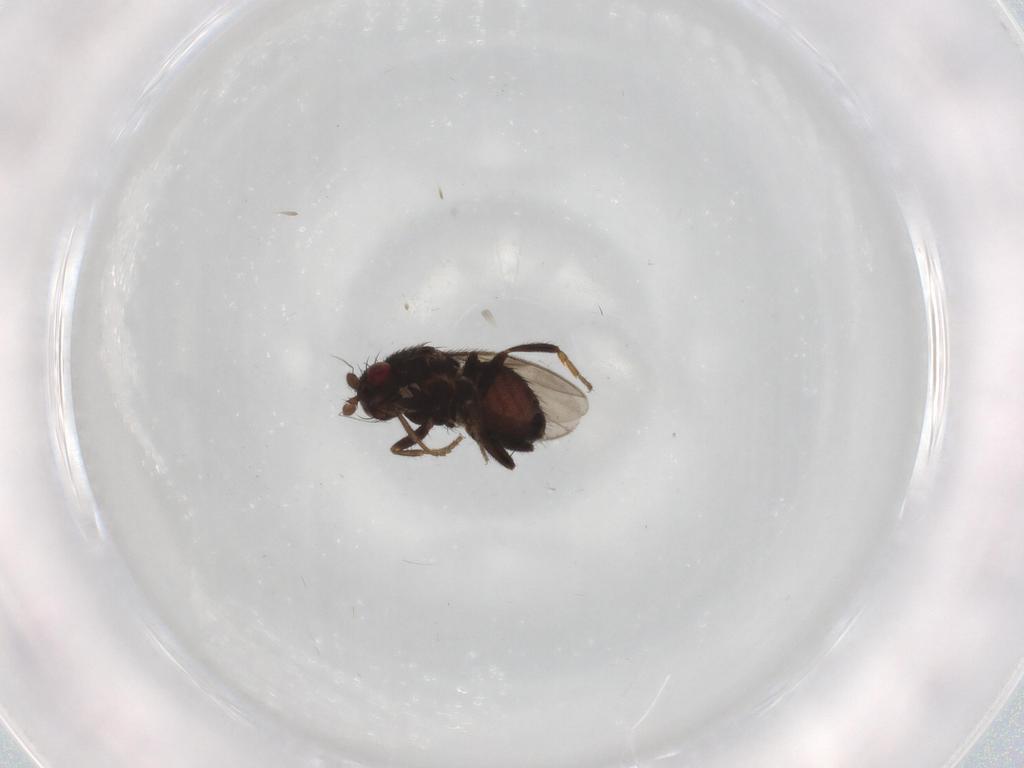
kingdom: Animalia
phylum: Arthropoda
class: Insecta
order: Diptera
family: Sphaeroceridae
